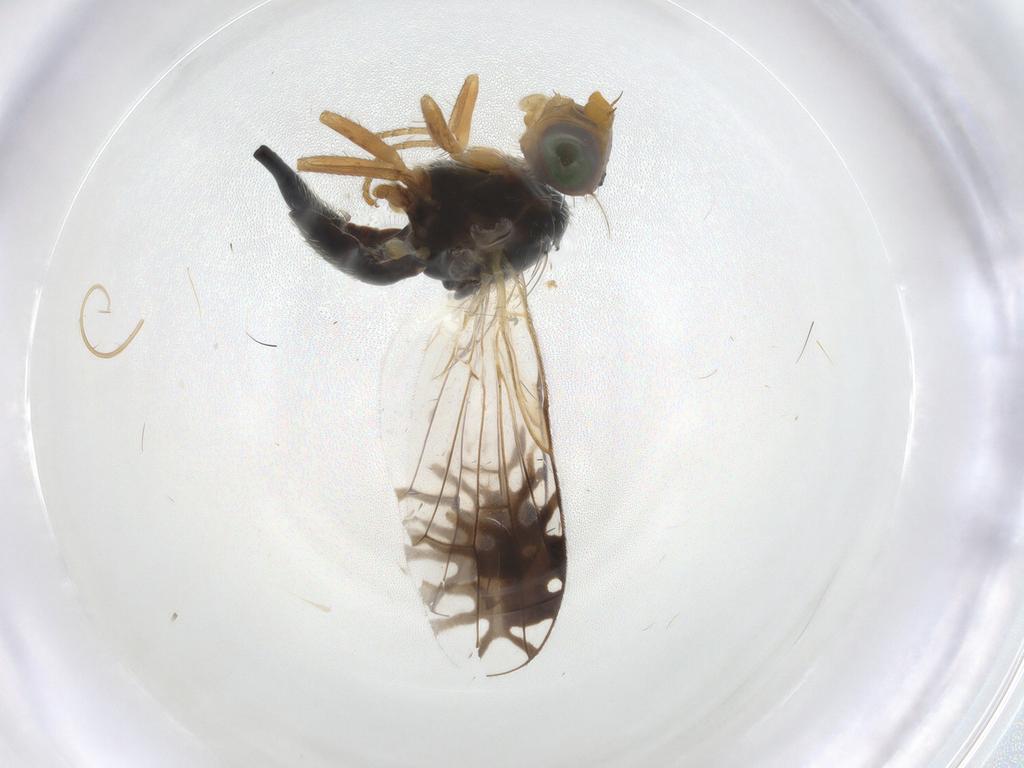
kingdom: Animalia
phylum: Arthropoda
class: Insecta
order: Diptera
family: Tephritidae
